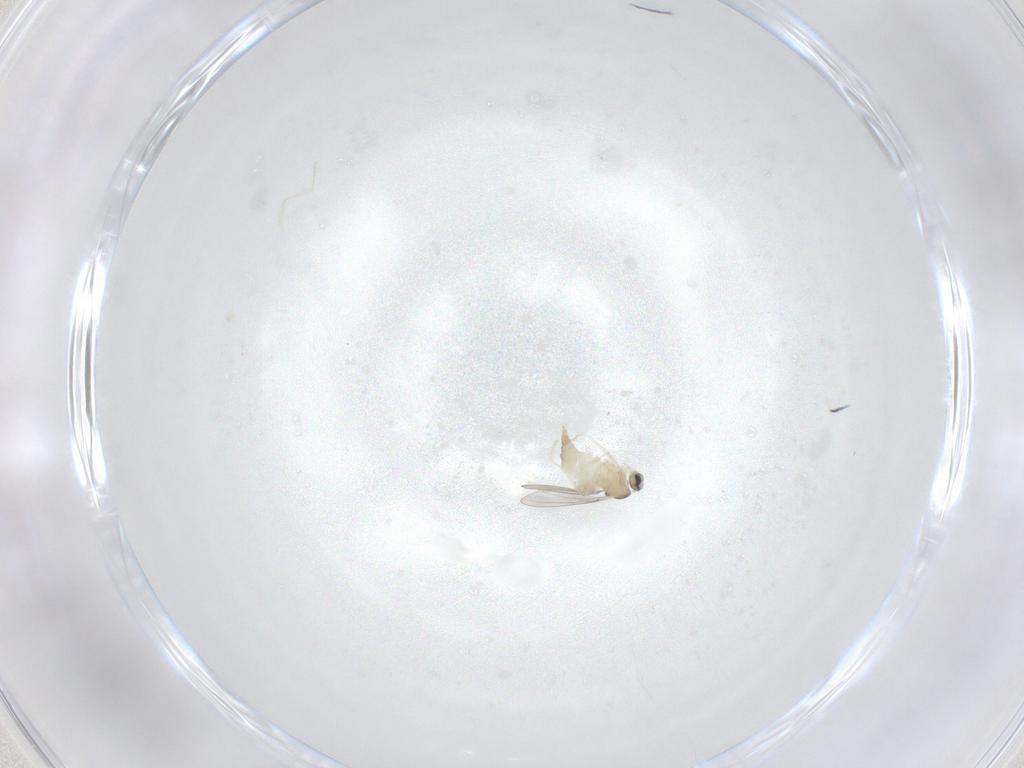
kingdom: Animalia
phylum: Arthropoda
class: Insecta
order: Diptera
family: Cecidomyiidae
